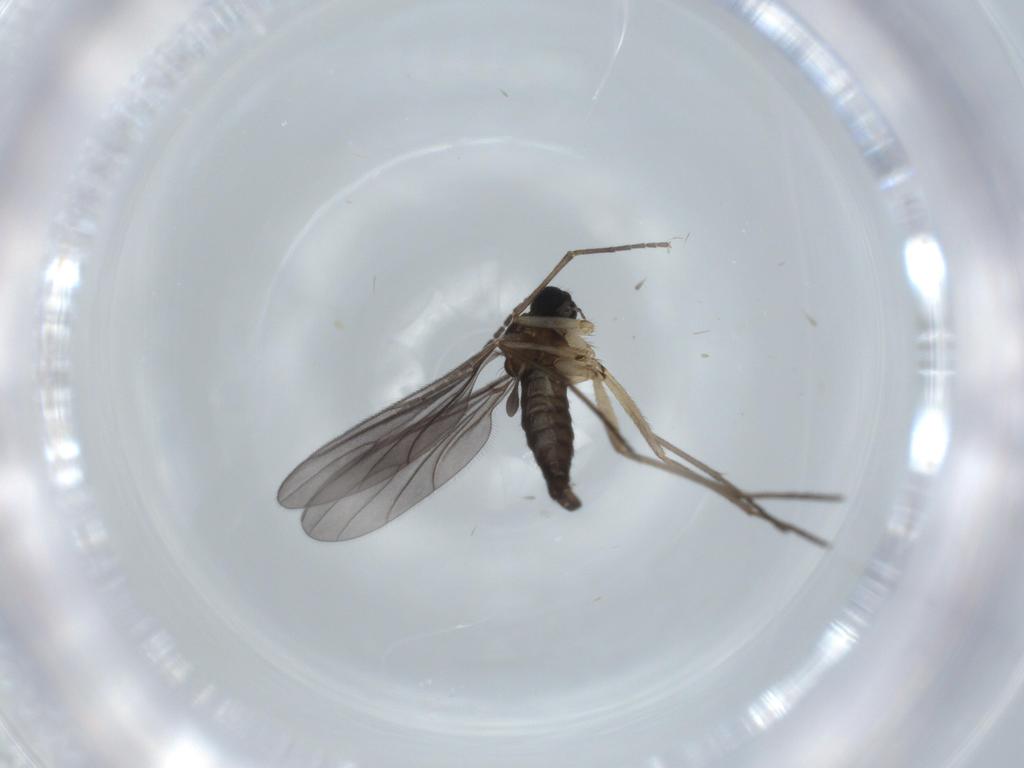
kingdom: Animalia
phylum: Arthropoda
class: Insecta
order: Diptera
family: Sciaridae
